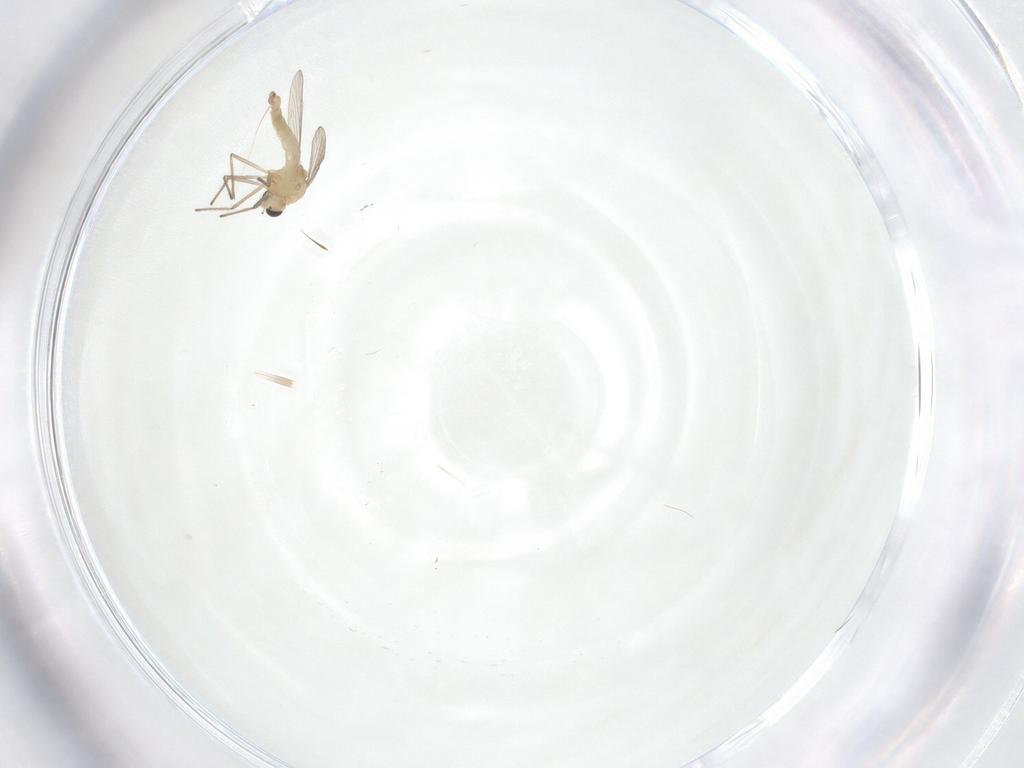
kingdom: Animalia
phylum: Arthropoda
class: Insecta
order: Diptera
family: Chironomidae
